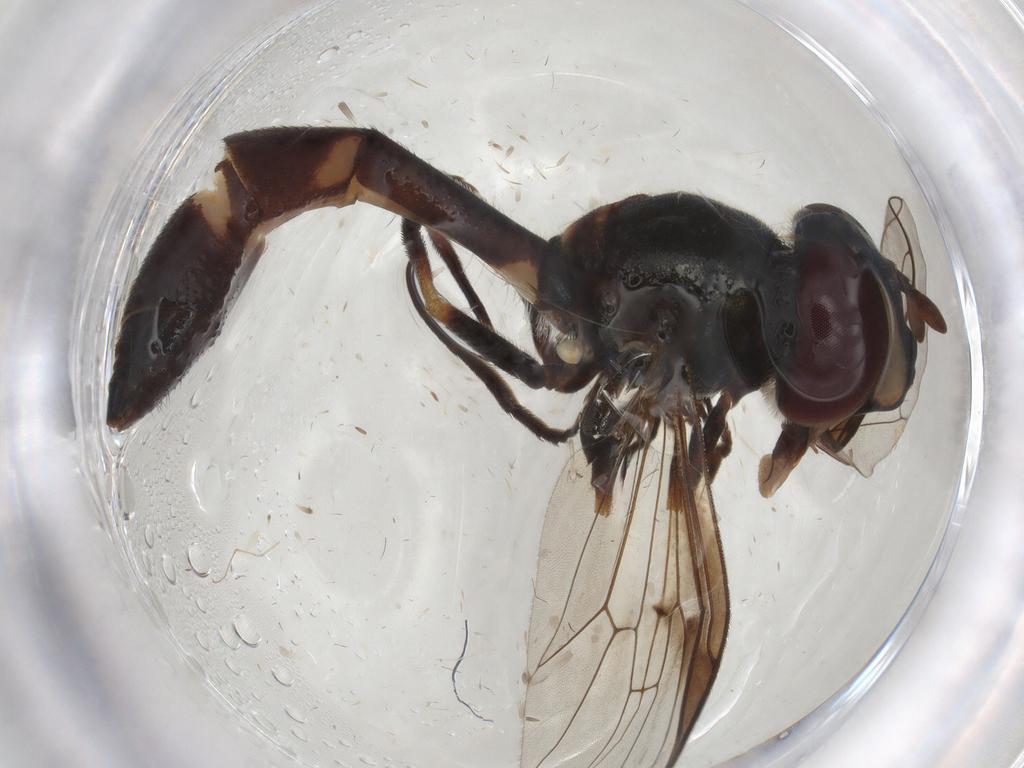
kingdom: Animalia
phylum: Arthropoda
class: Insecta
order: Diptera
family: Syrphidae
